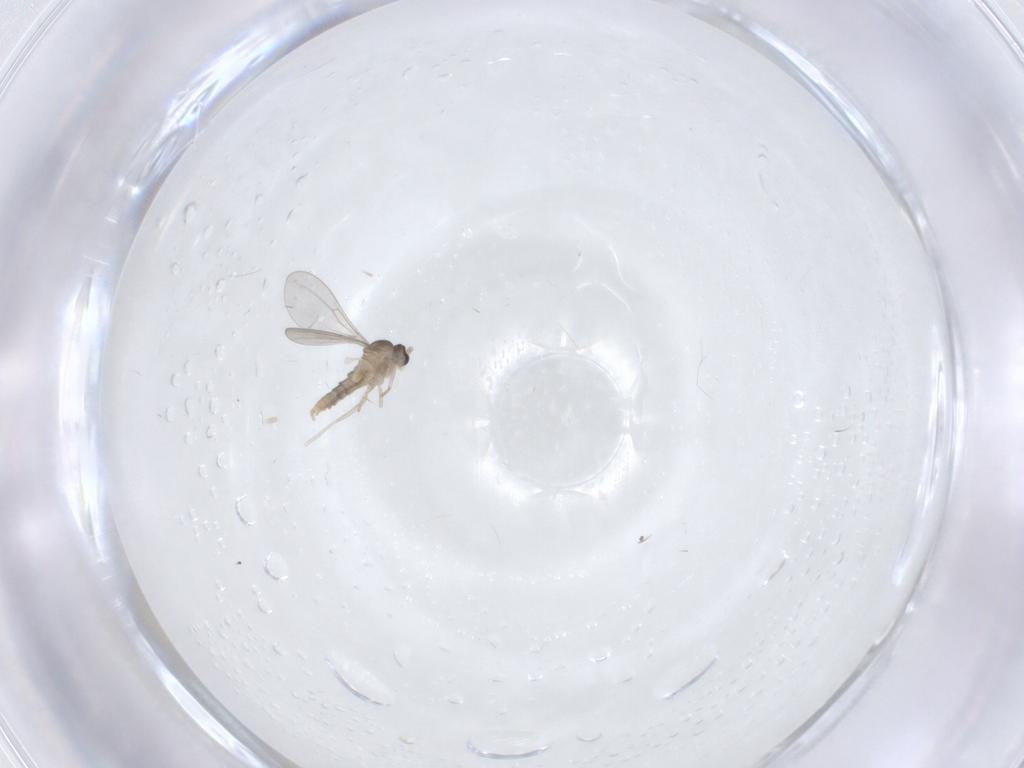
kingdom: Animalia
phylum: Arthropoda
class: Insecta
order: Diptera
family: Cecidomyiidae
